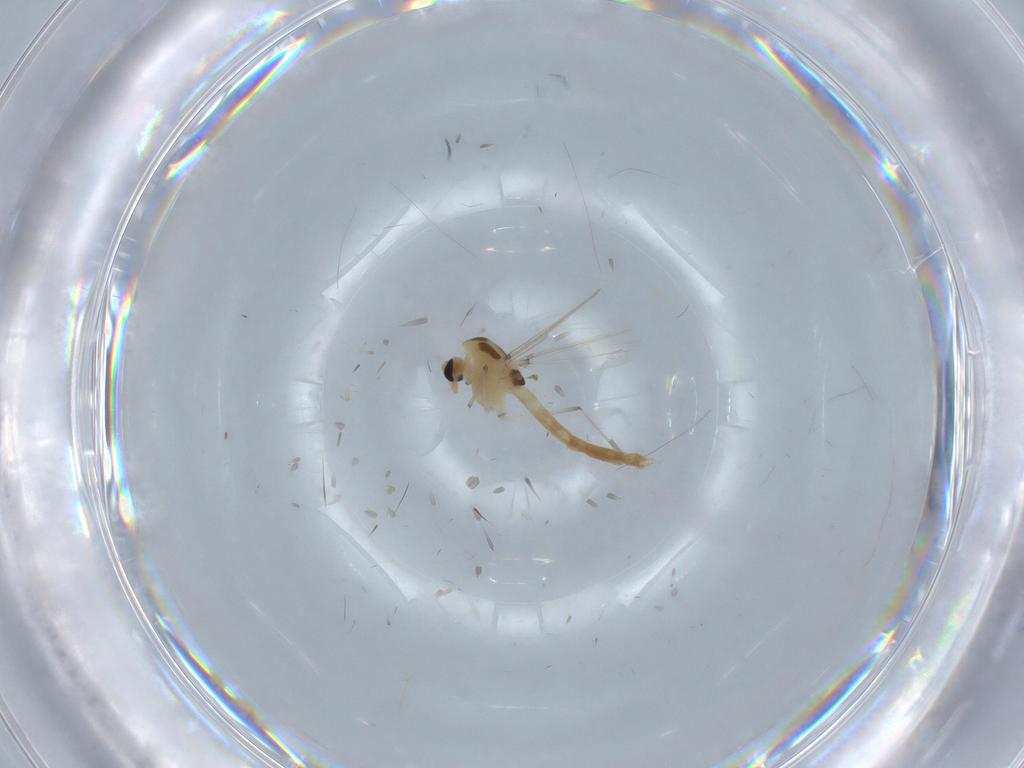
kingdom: Animalia
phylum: Arthropoda
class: Insecta
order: Diptera
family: Chironomidae
